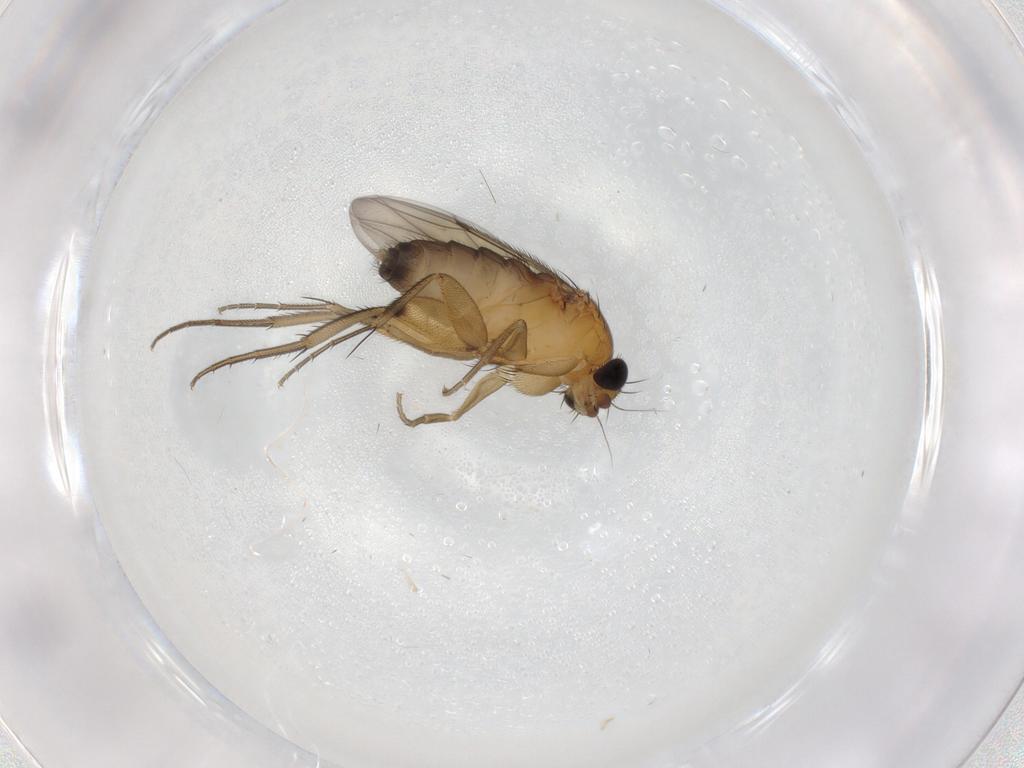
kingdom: Animalia
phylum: Arthropoda
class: Insecta
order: Diptera
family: Phoridae
